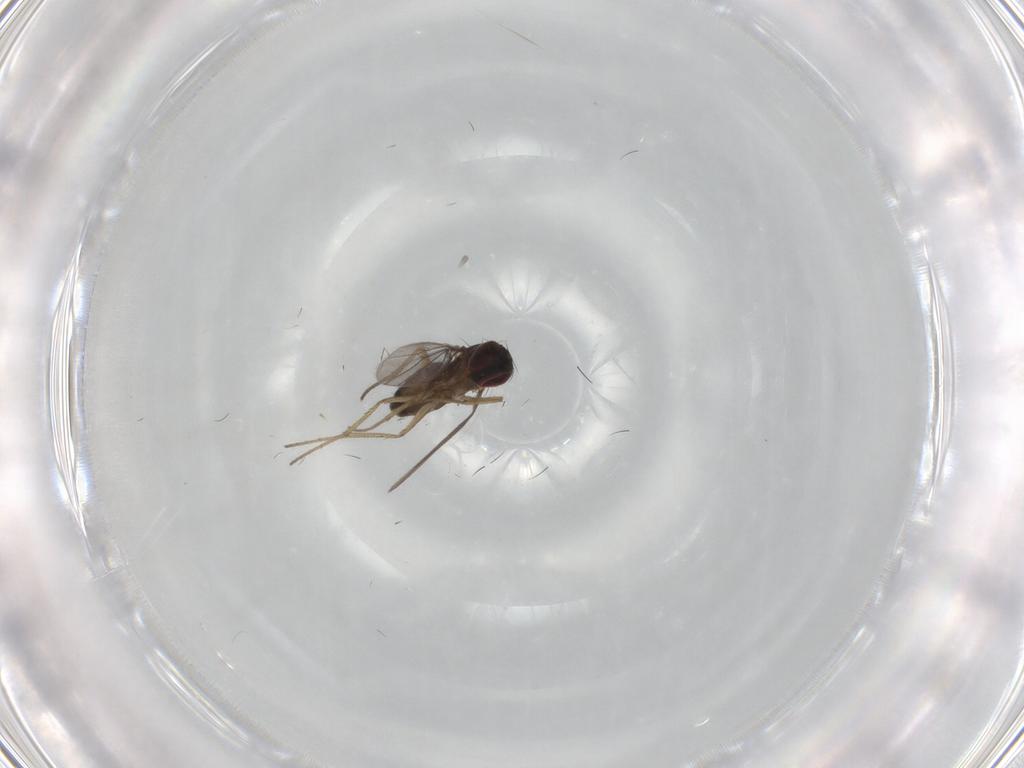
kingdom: Animalia
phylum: Arthropoda
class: Insecta
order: Diptera
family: Dolichopodidae
